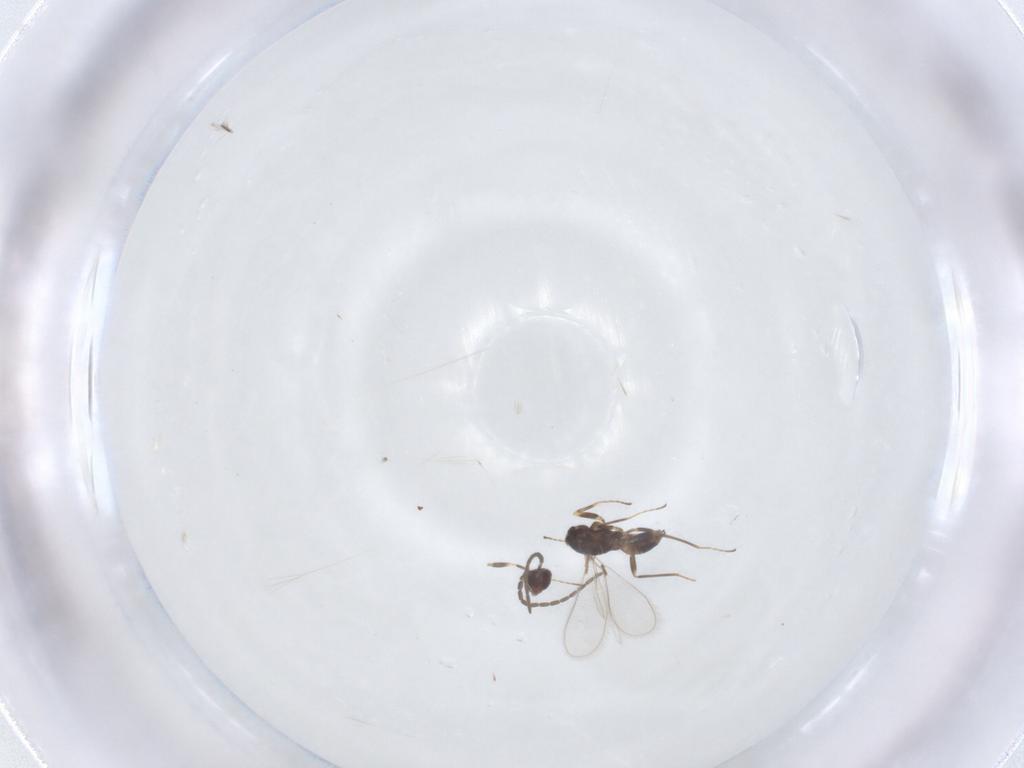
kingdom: Animalia
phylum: Arthropoda
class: Insecta
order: Hymenoptera
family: Mymaridae
